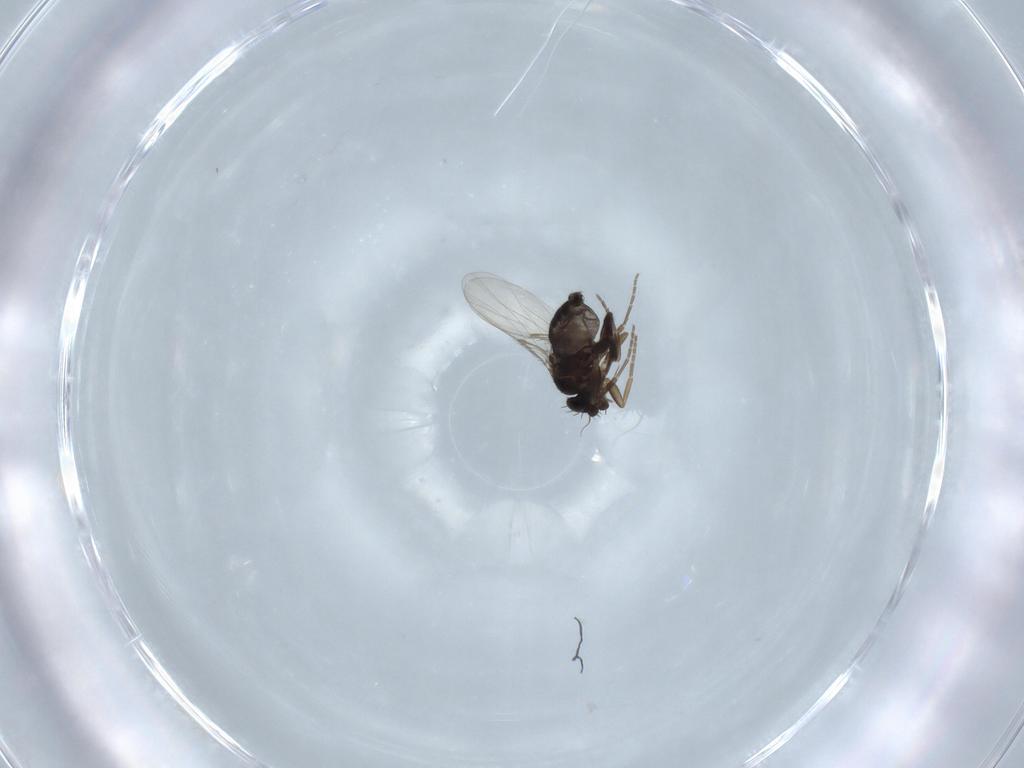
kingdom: Animalia
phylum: Arthropoda
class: Insecta
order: Diptera
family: Phoridae
